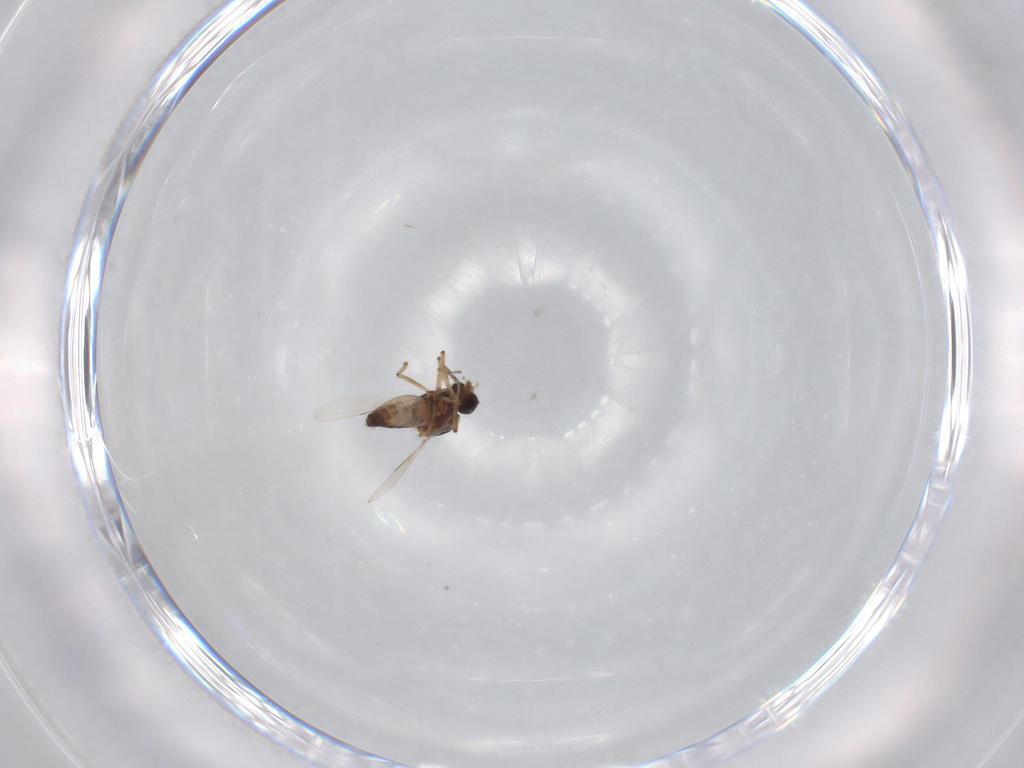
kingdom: Animalia
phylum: Arthropoda
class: Insecta
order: Diptera
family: Ceratopogonidae
